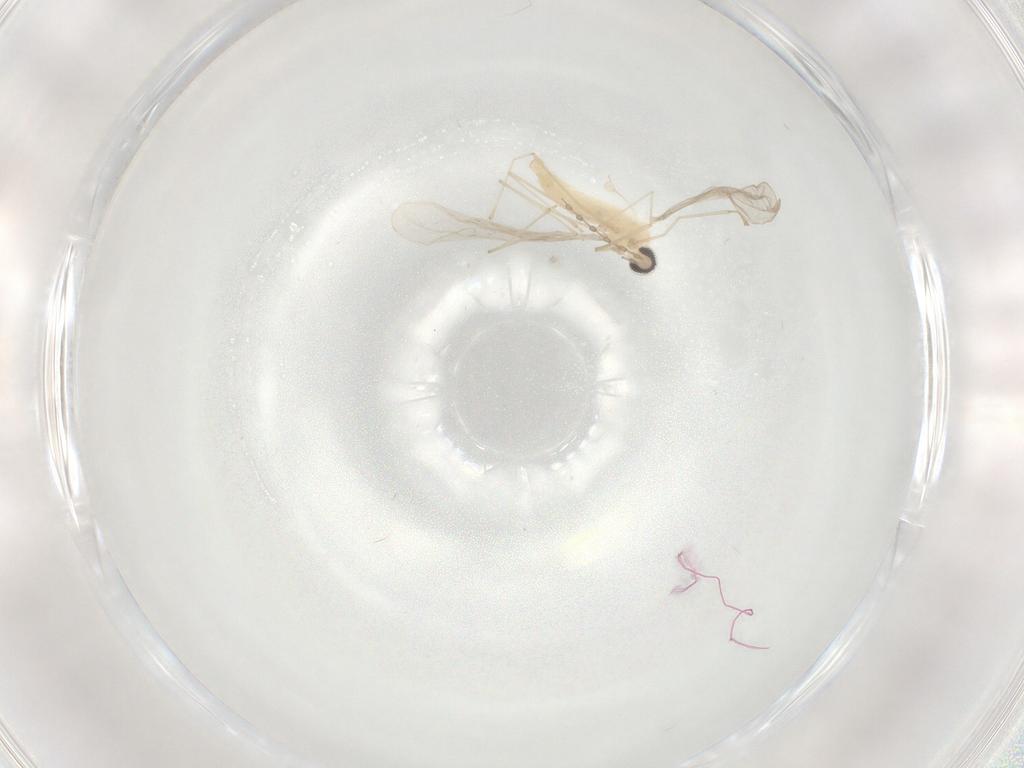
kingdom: Animalia
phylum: Arthropoda
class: Insecta
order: Diptera
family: Cecidomyiidae
